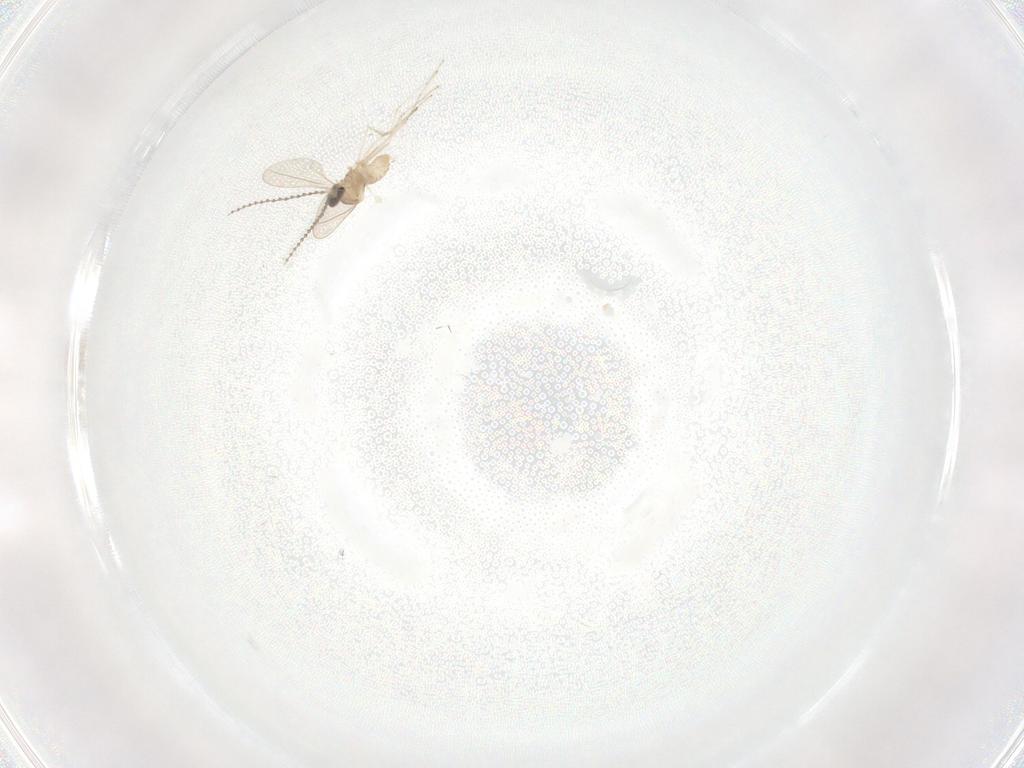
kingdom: Animalia
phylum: Arthropoda
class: Insecta
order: Diptera
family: Cecidomyiidae
